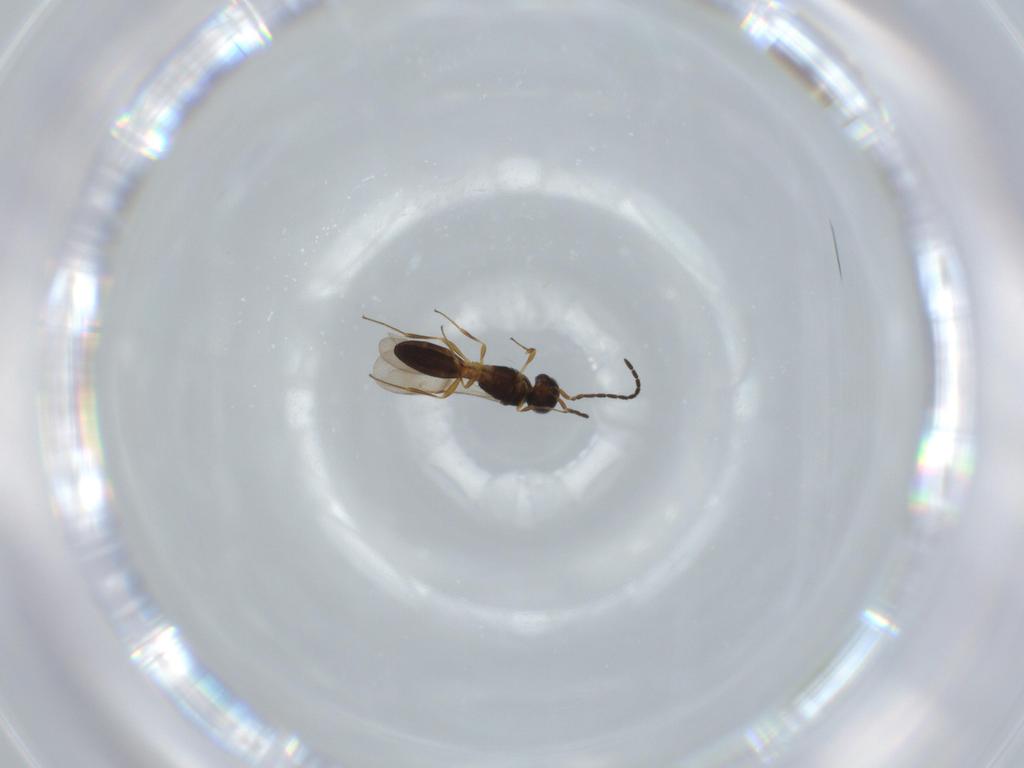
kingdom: Animalia
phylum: Arthropoda
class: Insecta
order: Hymenoptera
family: Scelionidae
